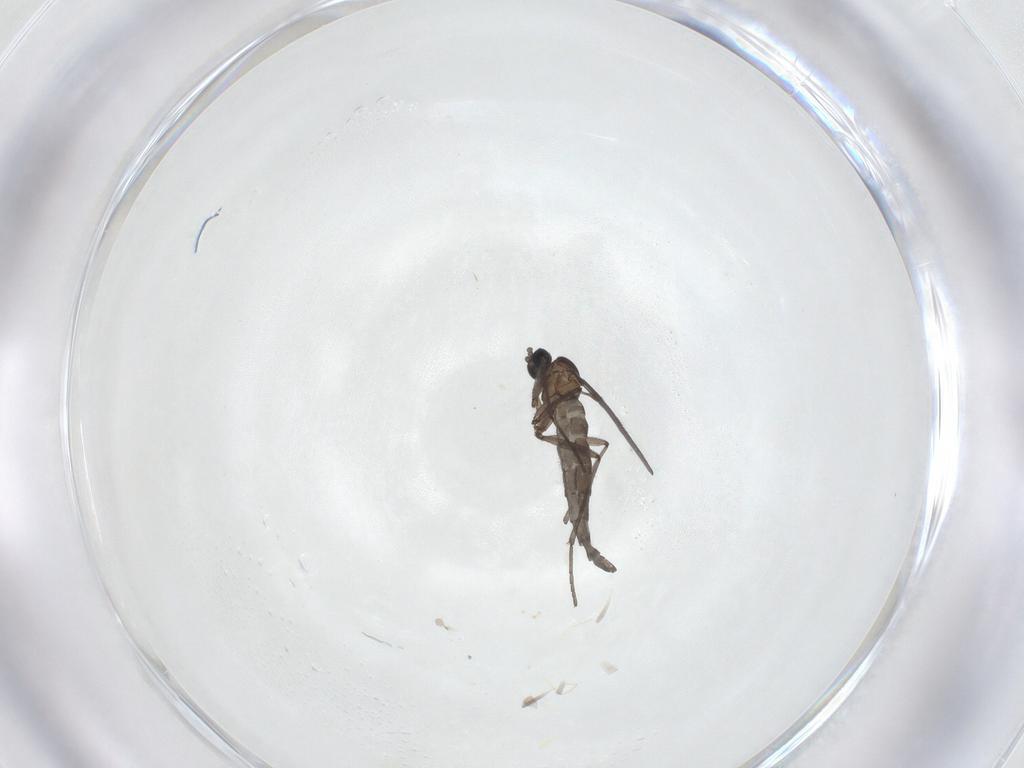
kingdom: Animalia
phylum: Arthropoda
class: Insecta
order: Diptera
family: Sciaridae
